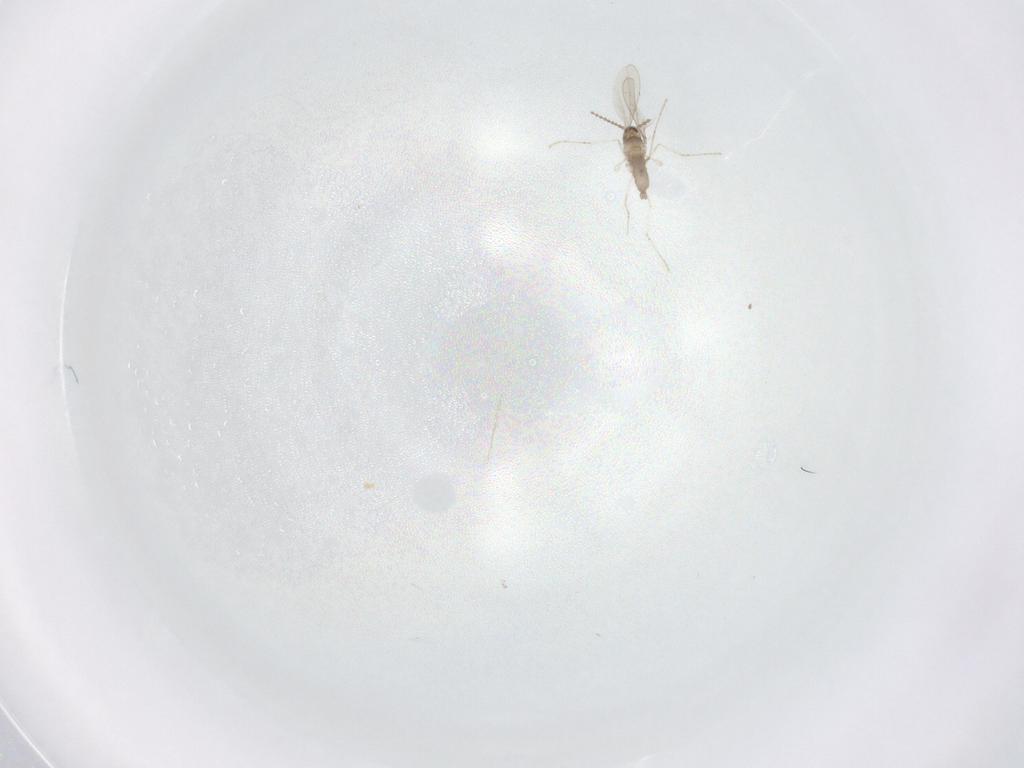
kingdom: Animalia
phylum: Arthropoda
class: Insecta
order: Diptera
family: Cecidomyiidae
